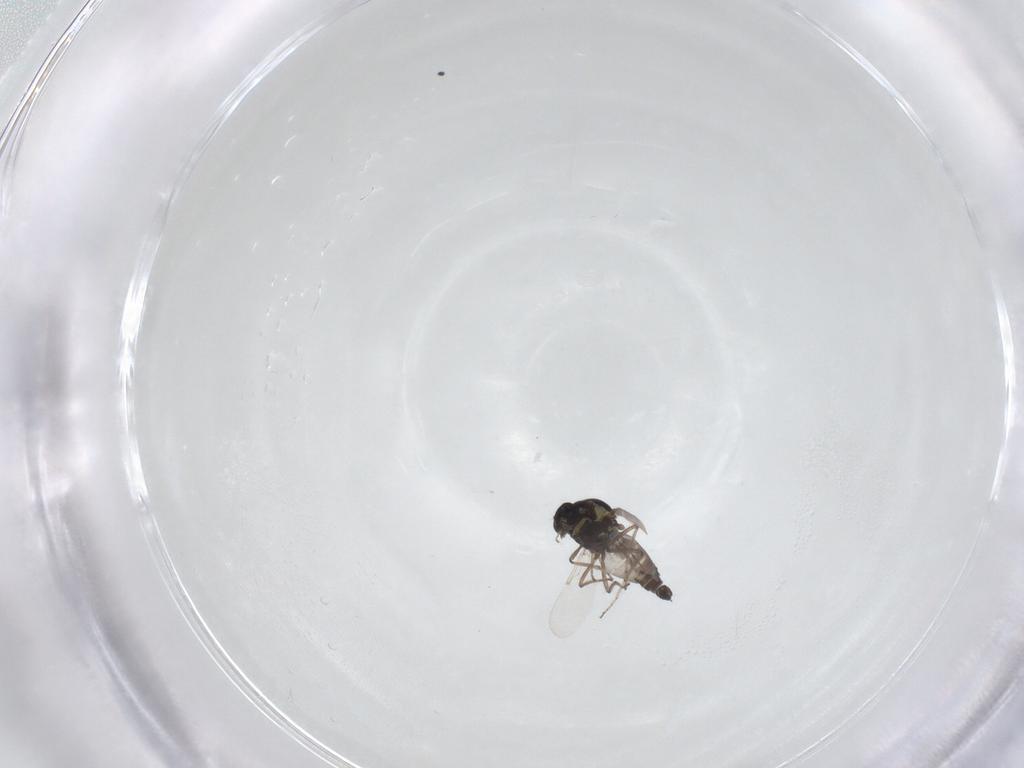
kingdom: Animalia
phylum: Arthropoda
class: Insecta
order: Diptera
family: Ceratopogonidae
